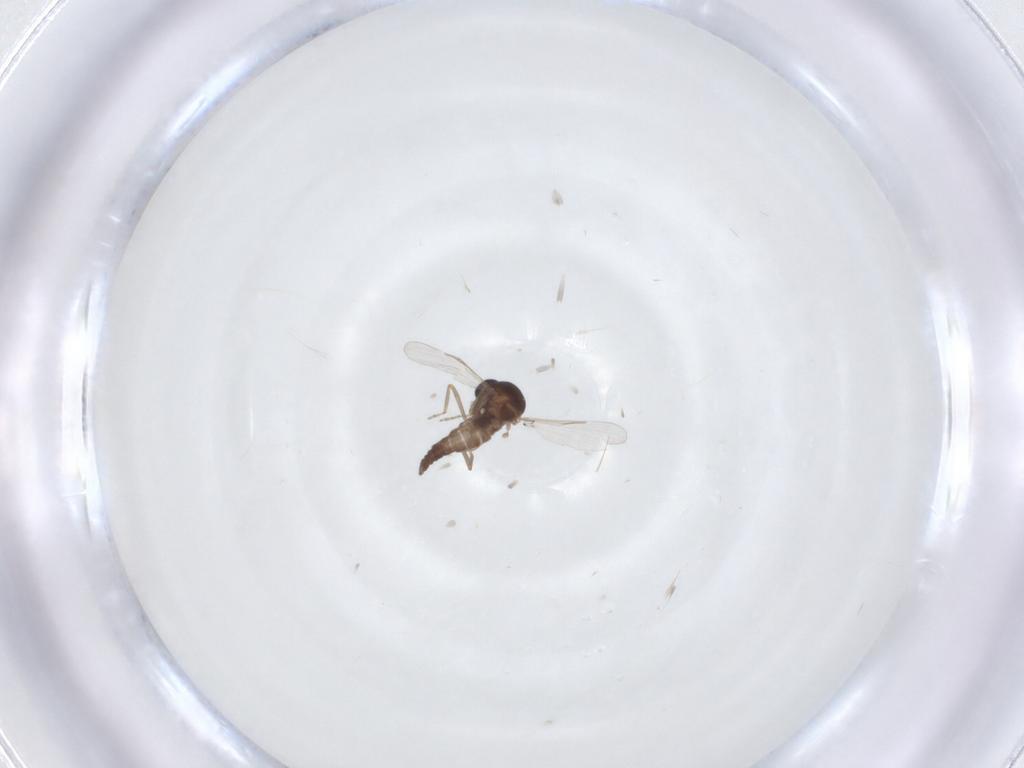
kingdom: Animalia
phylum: Arthropoda
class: Insecta
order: Diptera
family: Ceratopogonidae
